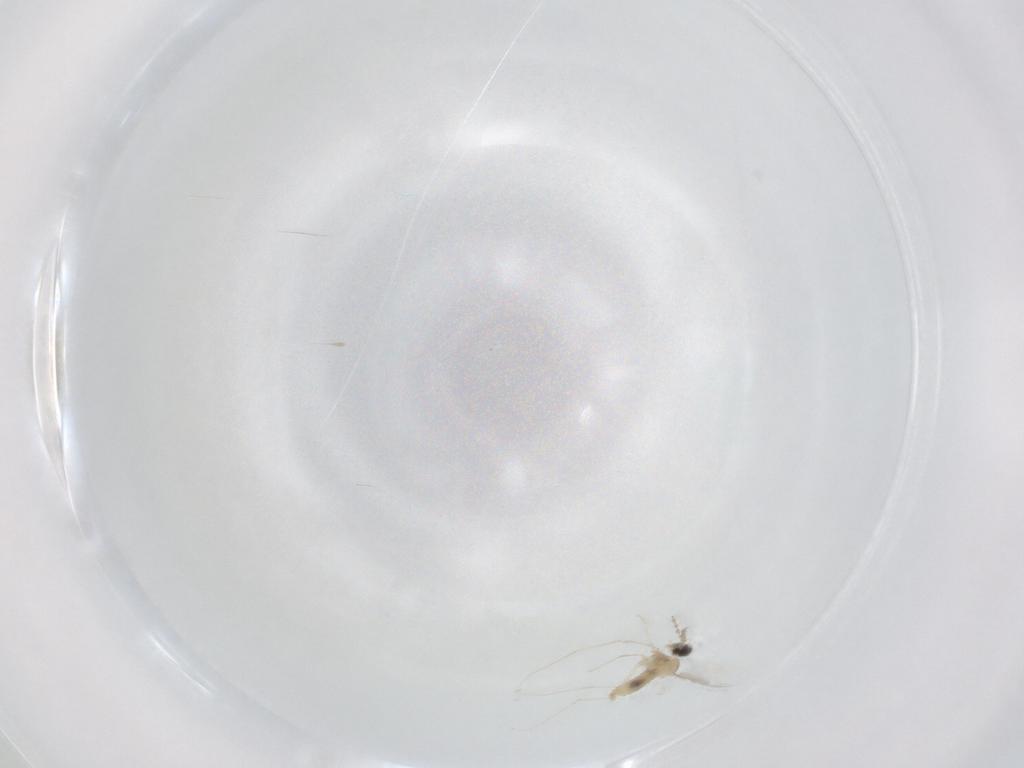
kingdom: Animalia
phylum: Arthropoda
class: Insecta
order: Diptera
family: Cecidomyiidae
